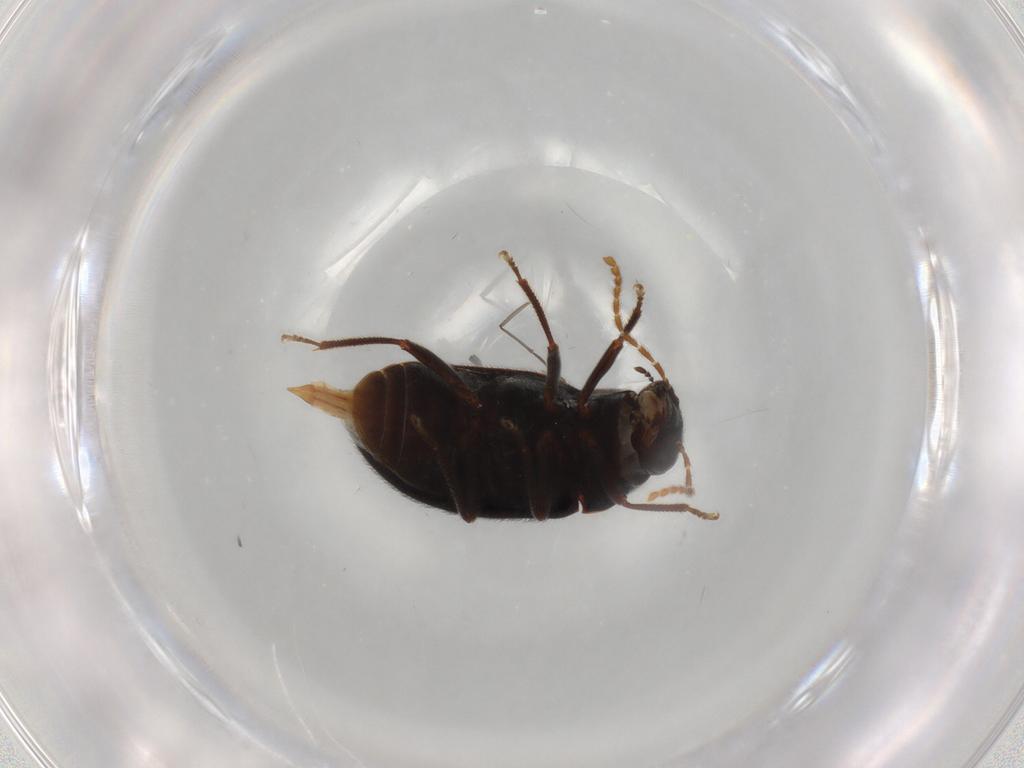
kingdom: Animalia
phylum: Arthropoda
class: Insecta
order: Coleoptera
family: Ptilodactylidae
